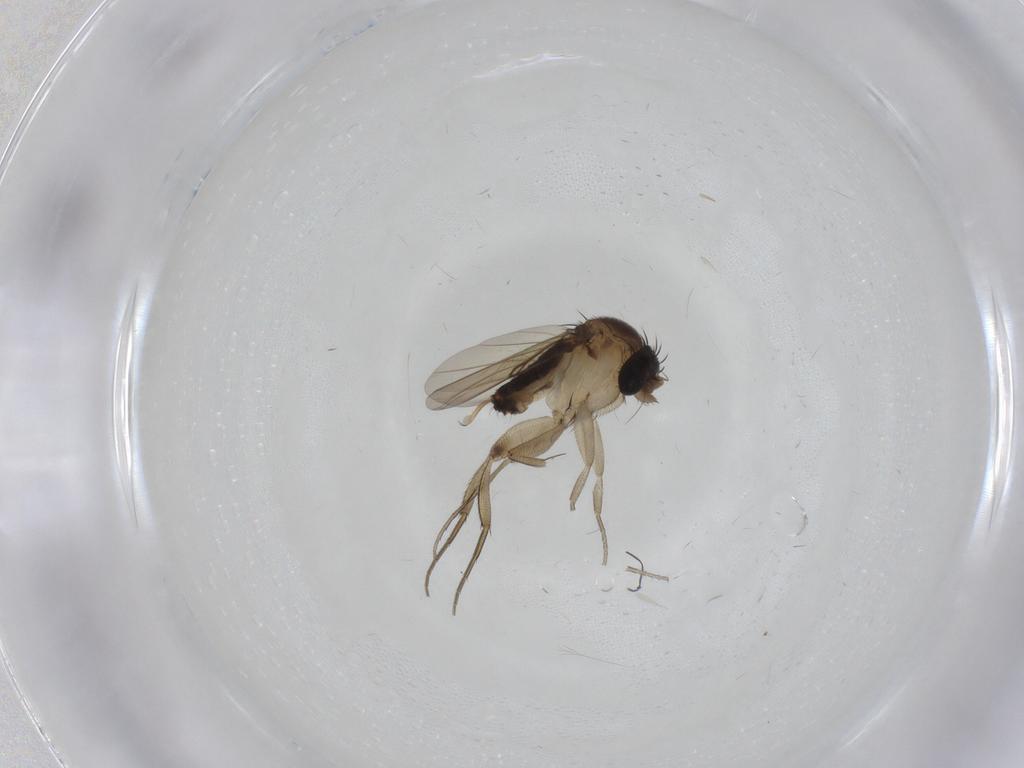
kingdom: Animalia
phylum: Arthropoda
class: Insecta
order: Diptera
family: Phoridae
